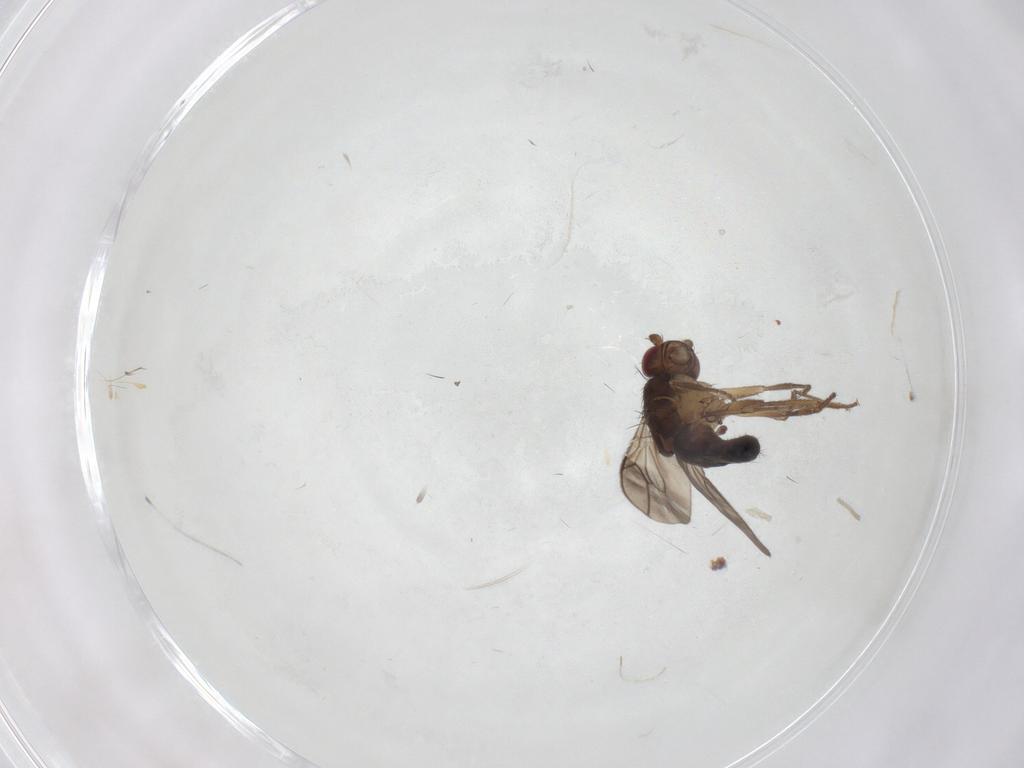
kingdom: Animalia
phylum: Arthropoda
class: Insecta
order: Diptera
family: Sphaeroceridae
